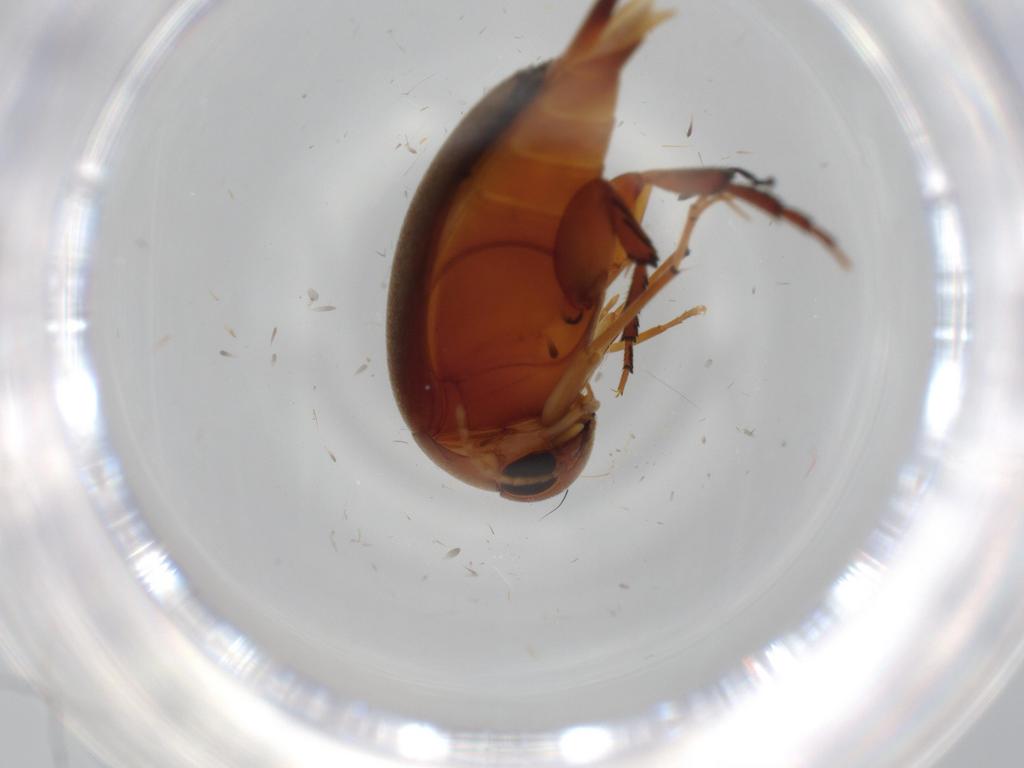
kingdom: Animalia
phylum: Arthropoda
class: Insecta
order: Coleoptera
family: Mordellidae
